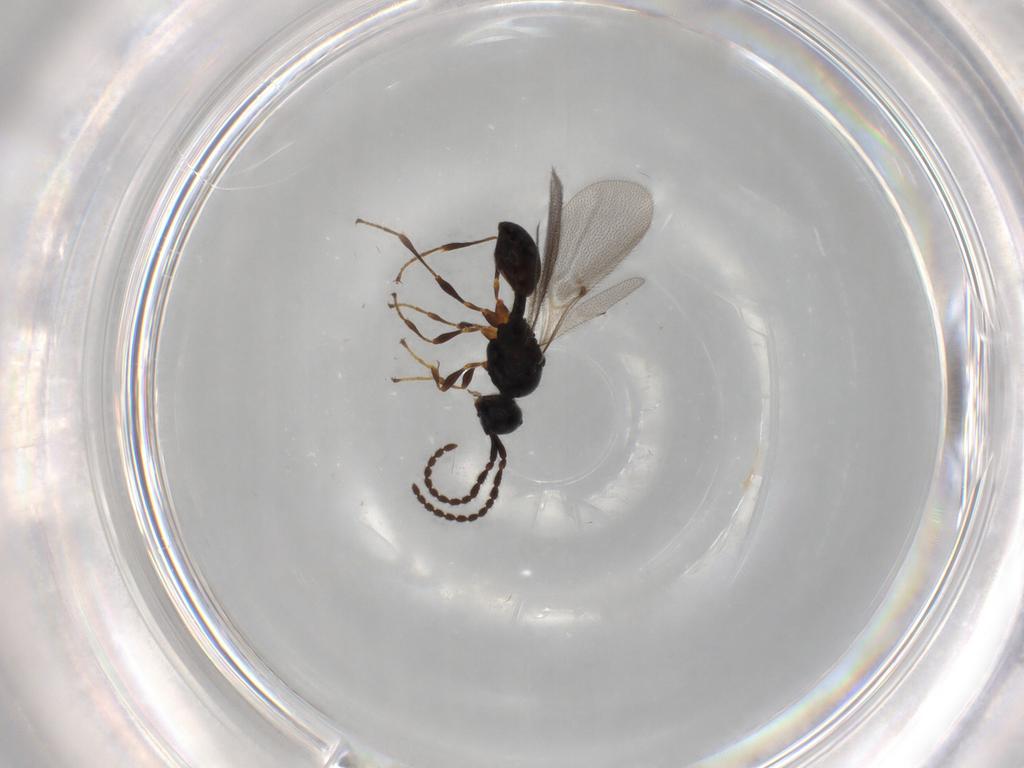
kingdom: Animalia
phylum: Arthropoda
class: Insecta
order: Hymenoptera
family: Diapriidae
